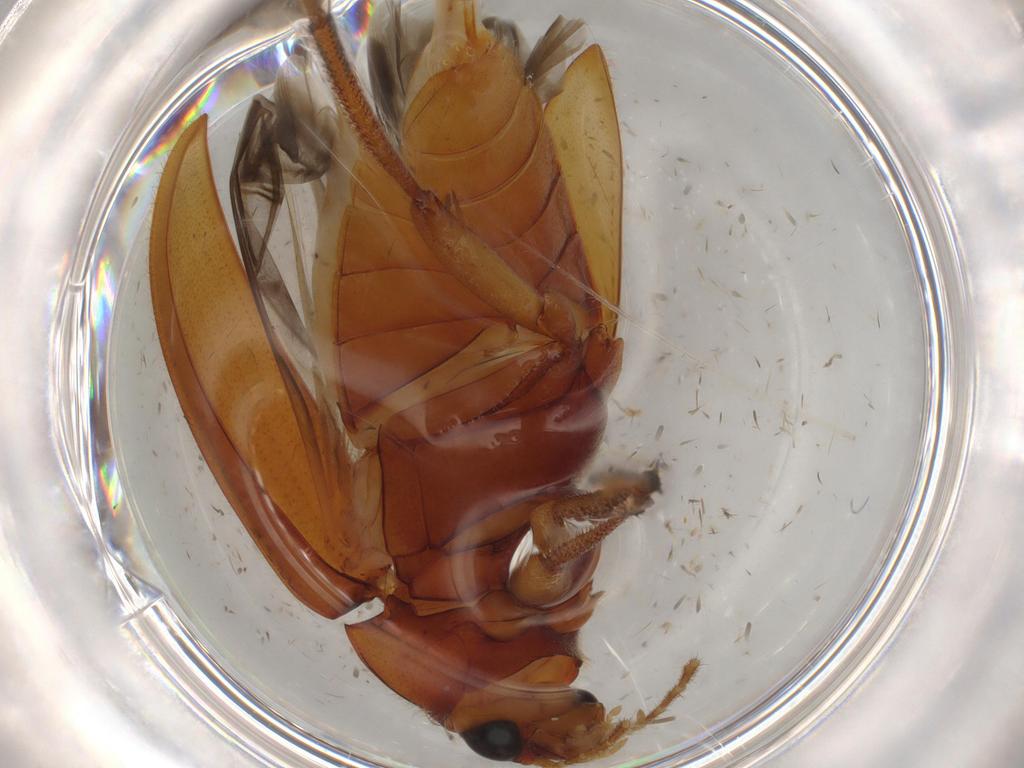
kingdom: Animalia
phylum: Arthropoda
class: Insecta
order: Coleoptera
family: Ptilodactylidae
